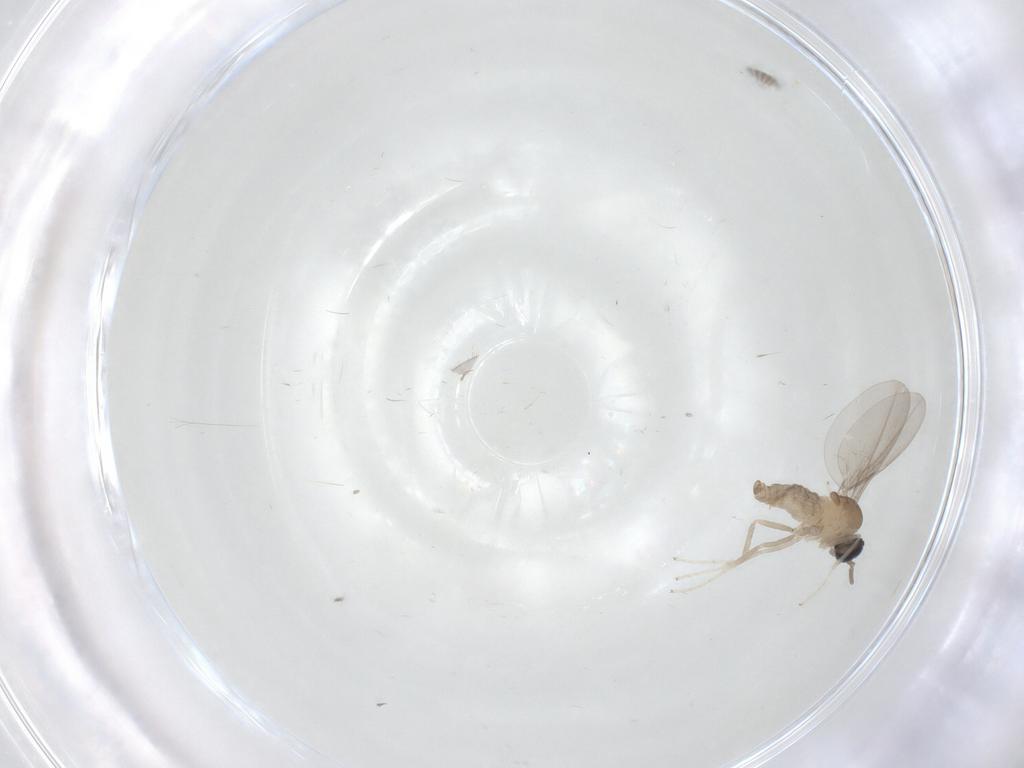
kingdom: Animalia
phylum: Arthropoda
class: Insecta
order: Diptera
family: Cecidomyiidae
